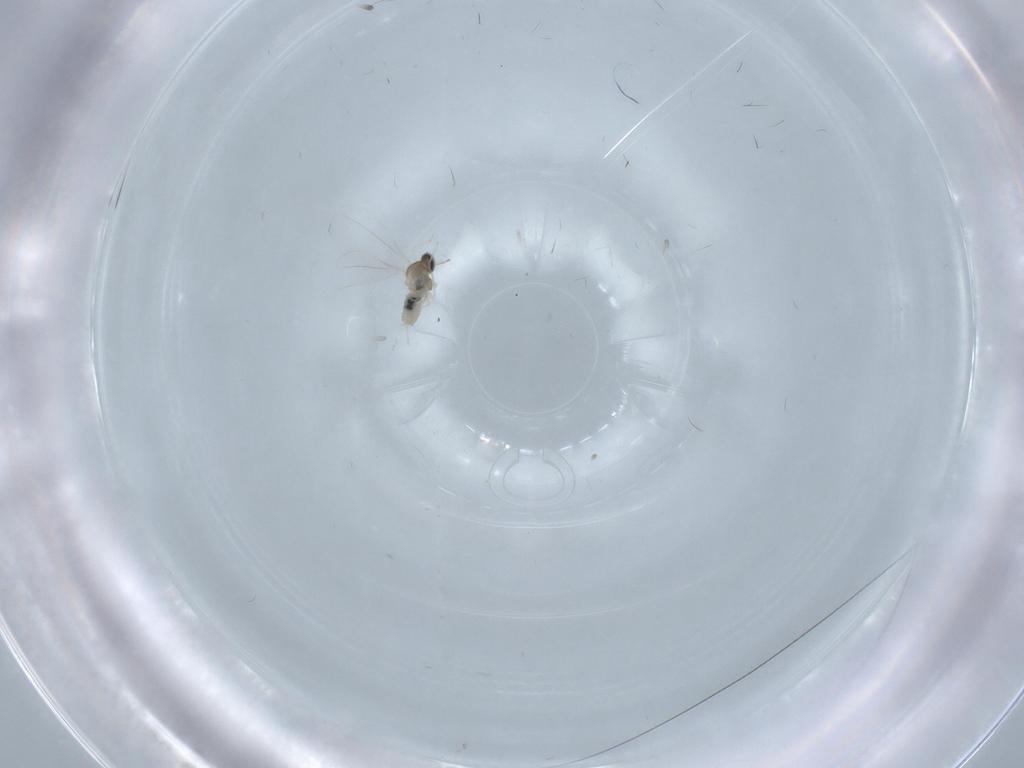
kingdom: Animalia
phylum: Arthropoda
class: Insecta
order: Diptera
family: Cecidomyiidae
